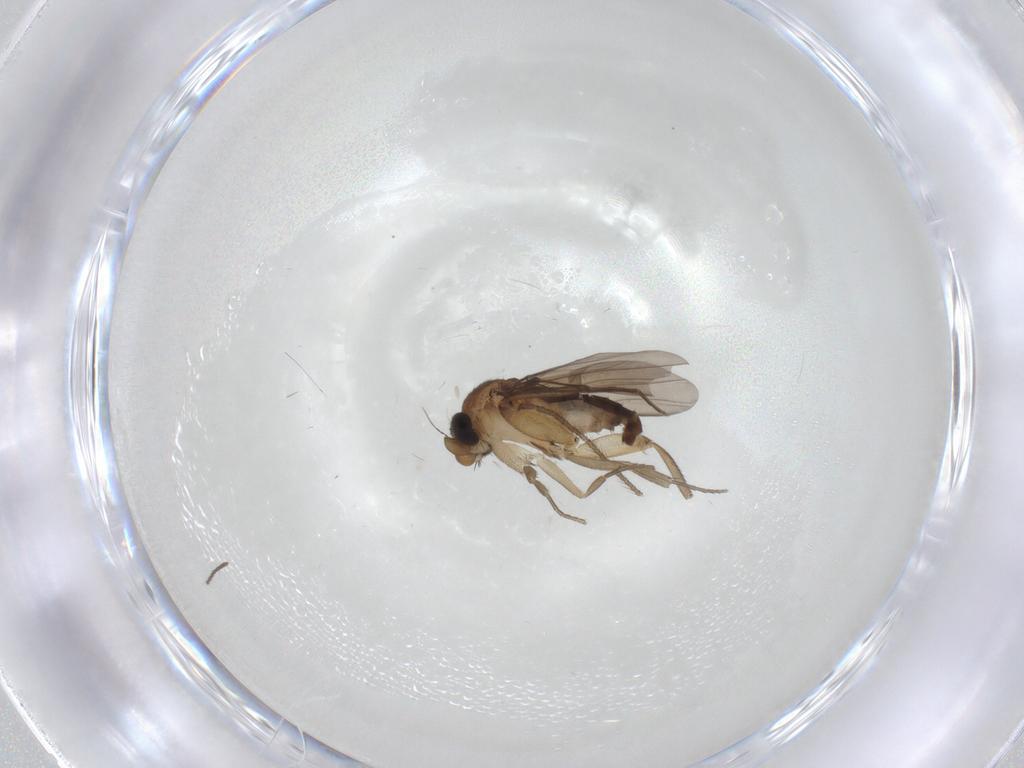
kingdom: Animalia
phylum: Arthropoda
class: Insecta
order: Diptera
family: Phoridae
